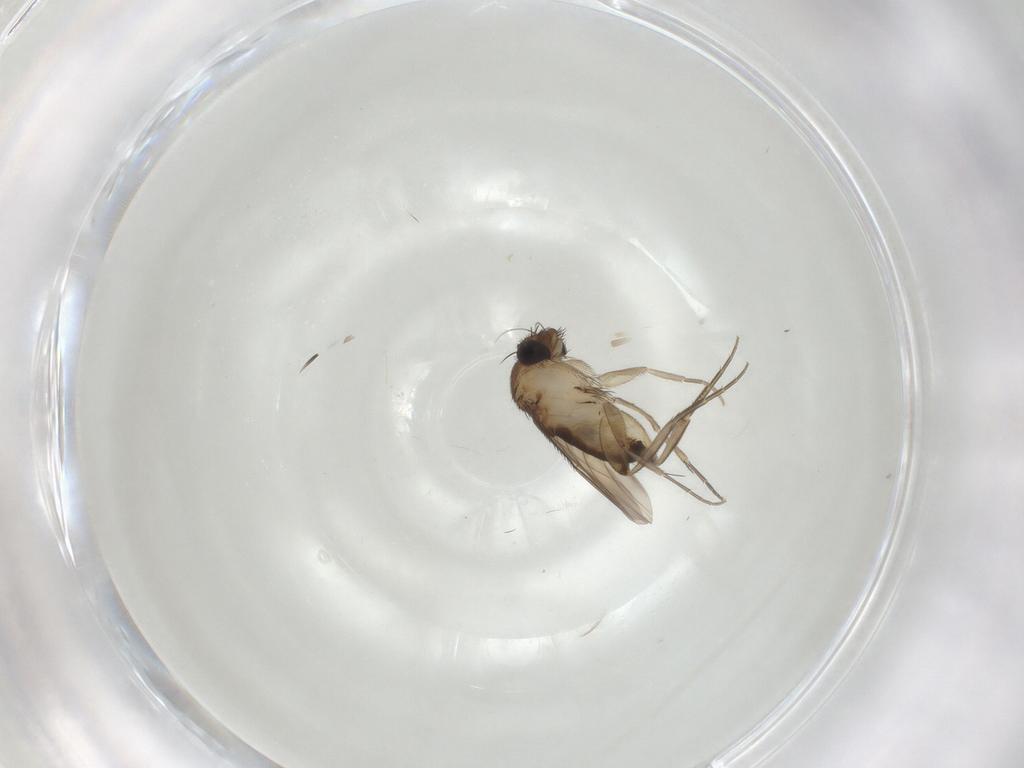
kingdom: Animalia
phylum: Arthropoda
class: Insecta
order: Diptera
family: Phoridae
